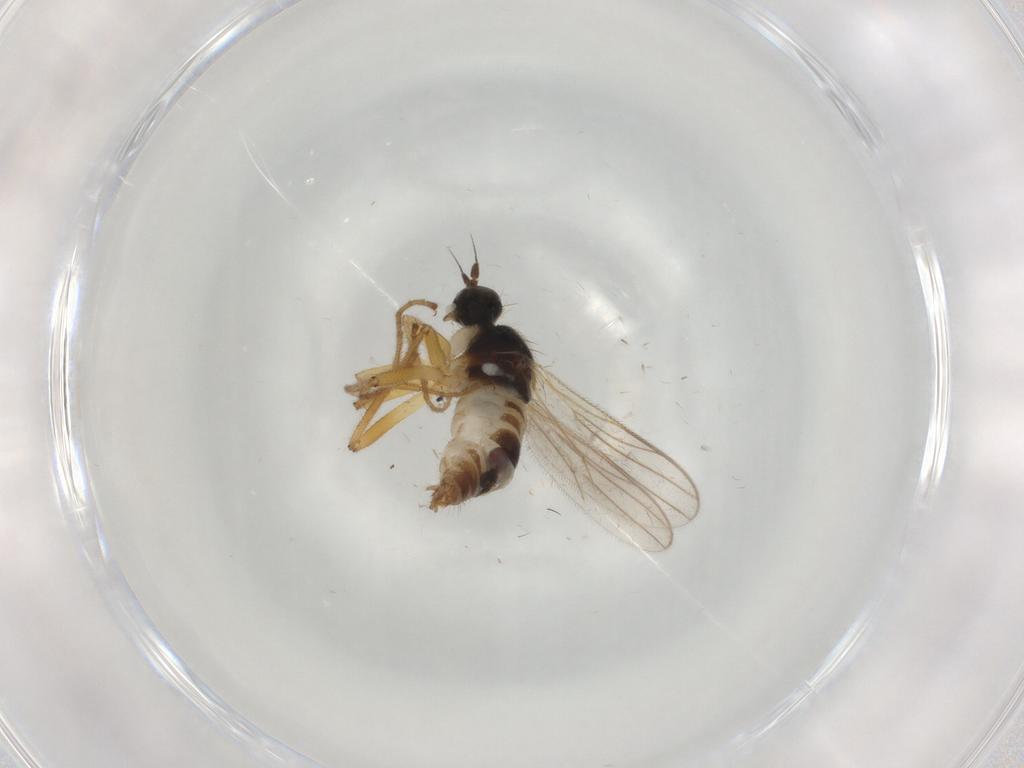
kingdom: Animalia
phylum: Arthropoda
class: Insecta
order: Diptera
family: Hybotidae
